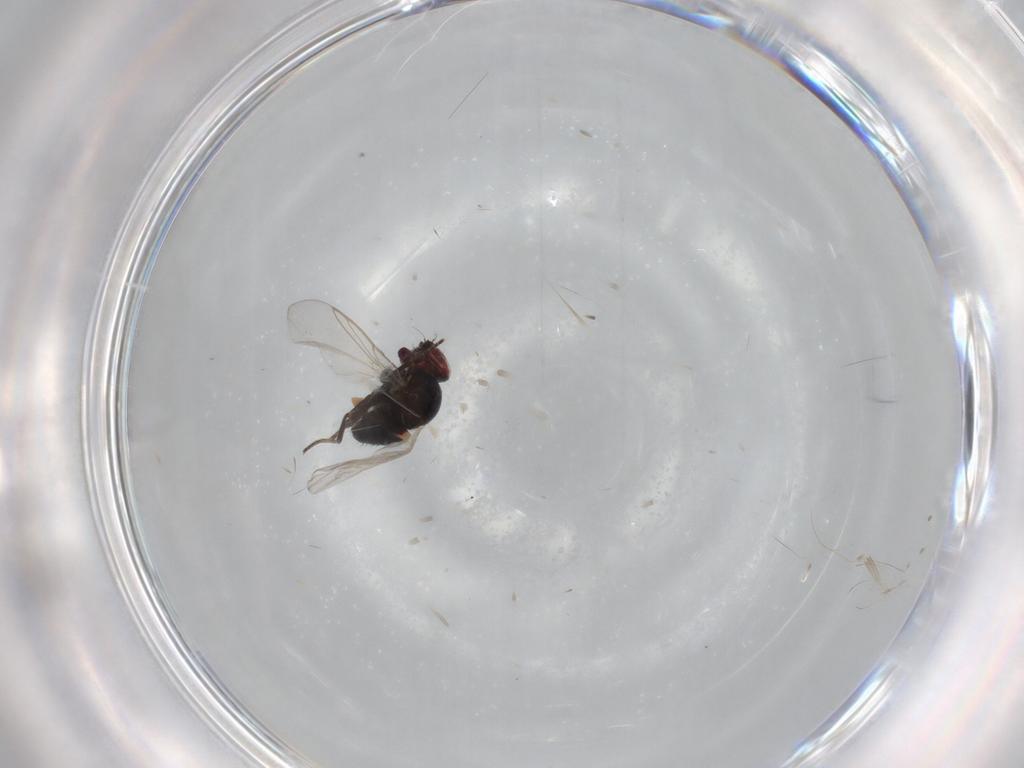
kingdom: Animalia
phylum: Arthropoda
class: Insecta
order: Diptera
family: Agromyzidae
